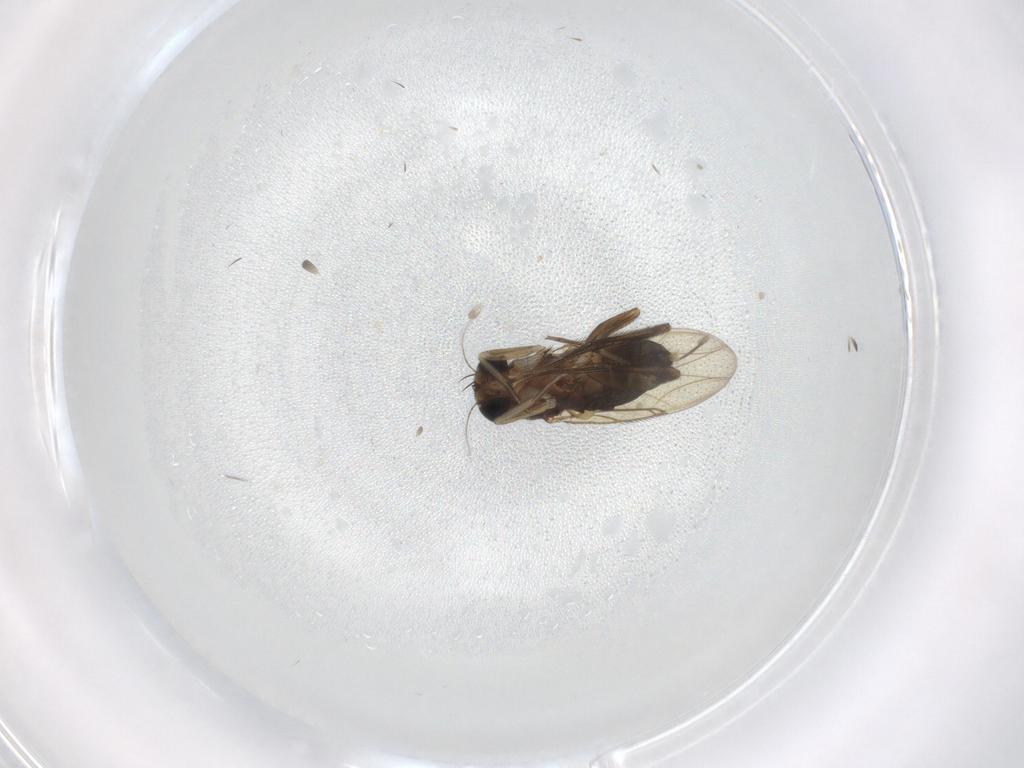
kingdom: Animalia
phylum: Arthropoda
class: Insecta
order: Diptera
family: Phoridae
